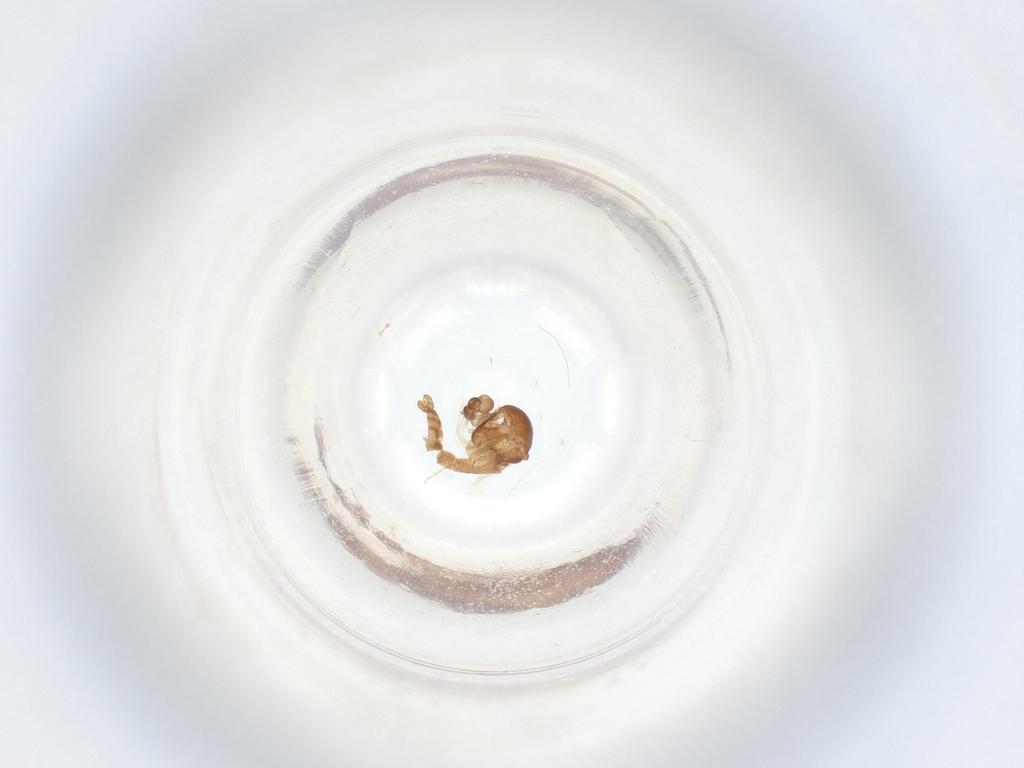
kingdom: Animalia
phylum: Arthropoda
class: Insecta
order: Diptera
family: Ceratopogonidae
